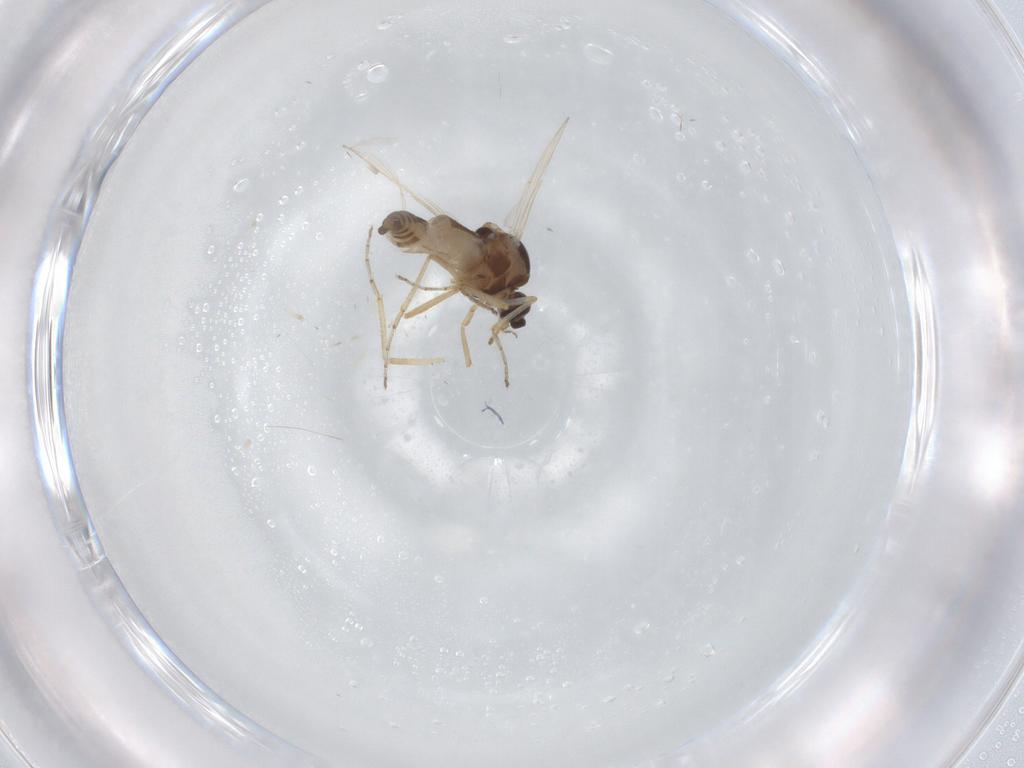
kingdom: Animalia
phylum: Arthropoda
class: Insecta
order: Diptera
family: Ceratopogonidae
